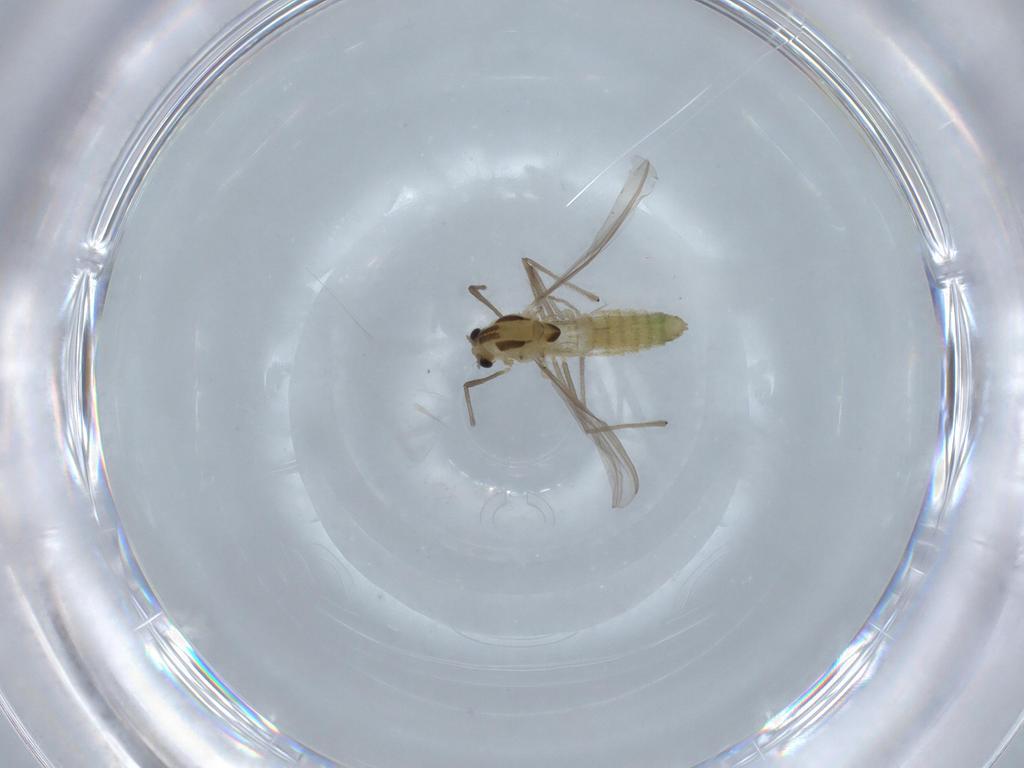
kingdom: Animalia
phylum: Arthropoda
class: Insecta
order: Diptera
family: Chironomidae
